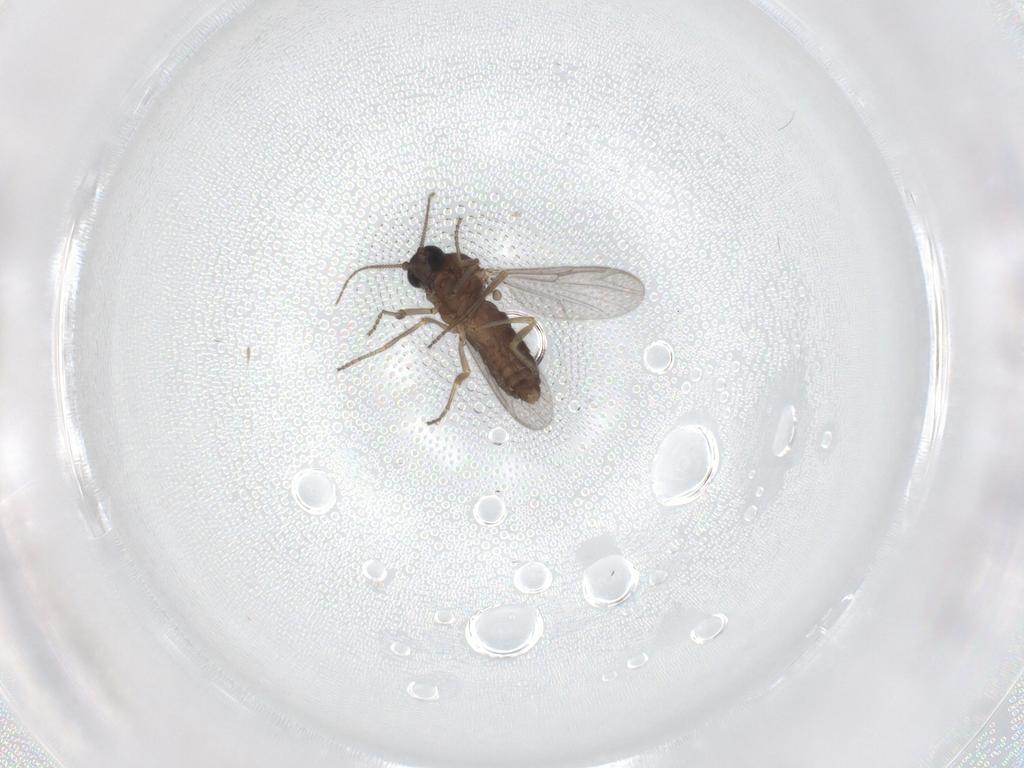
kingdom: Animalia
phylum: Arthropoda
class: Insecta
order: Diptera
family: Ceratopogonidae
